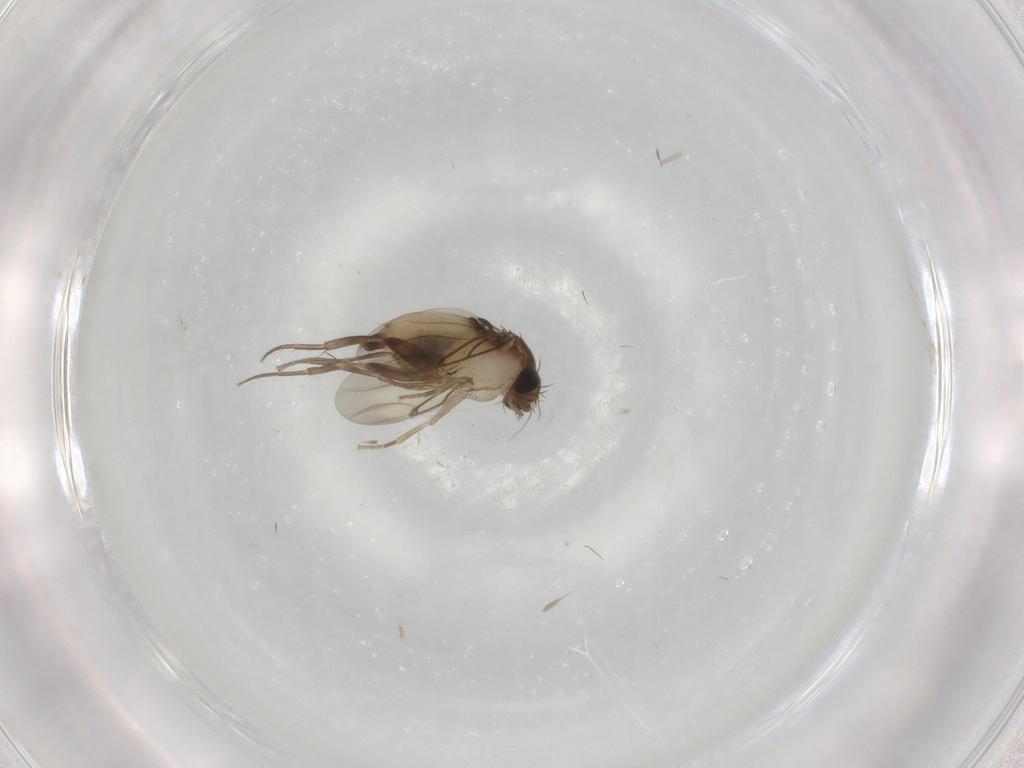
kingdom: Animalia
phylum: Arthropoda
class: Insecta
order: Diptera
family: Phoridae
